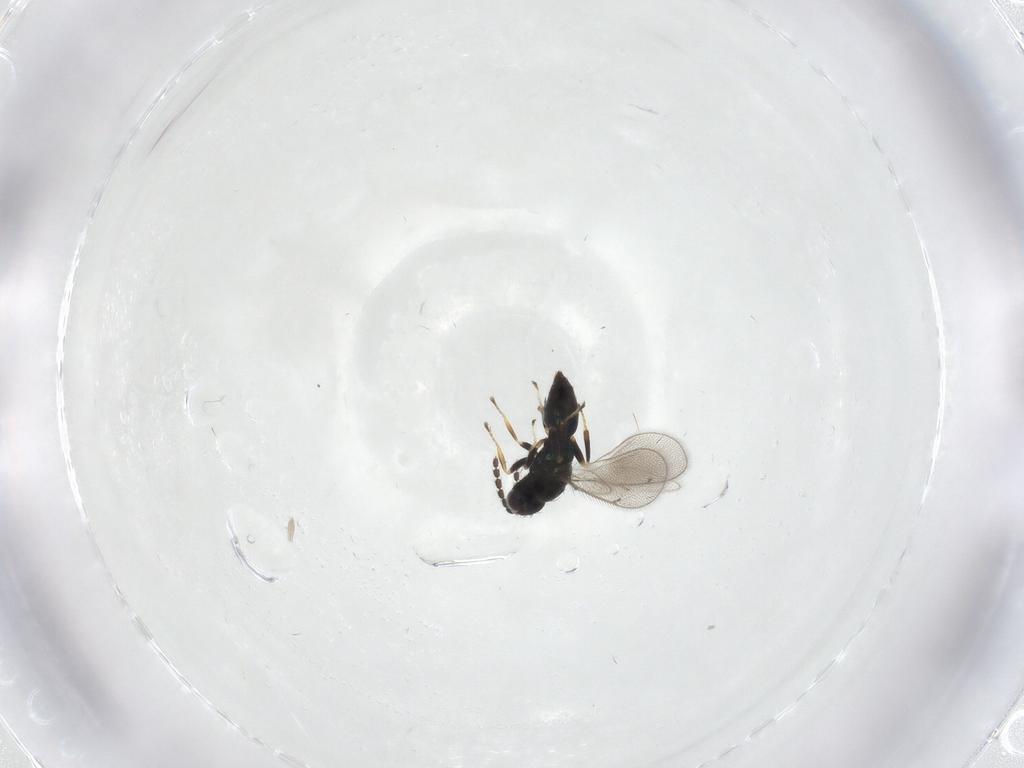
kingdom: Animalia
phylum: Arthropoda
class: Insecta
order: Hymenoptera
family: Eulophidae
